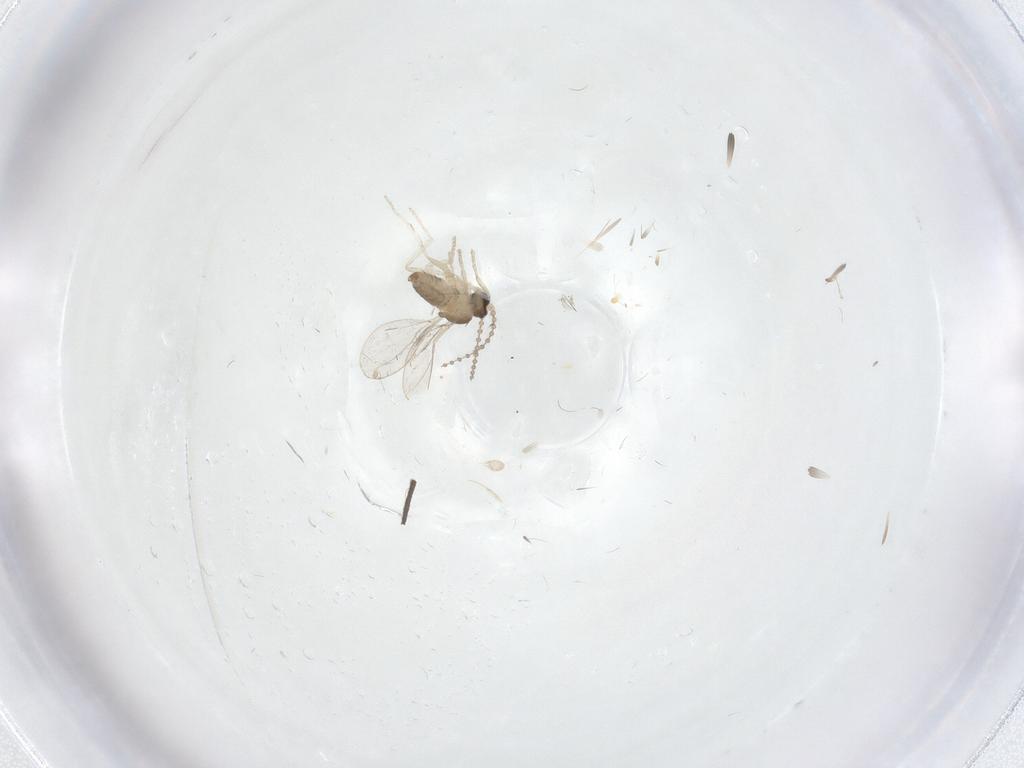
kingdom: Animalia
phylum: Arthropoda
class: Insecta
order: Diptera
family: Cecidomyiidae
